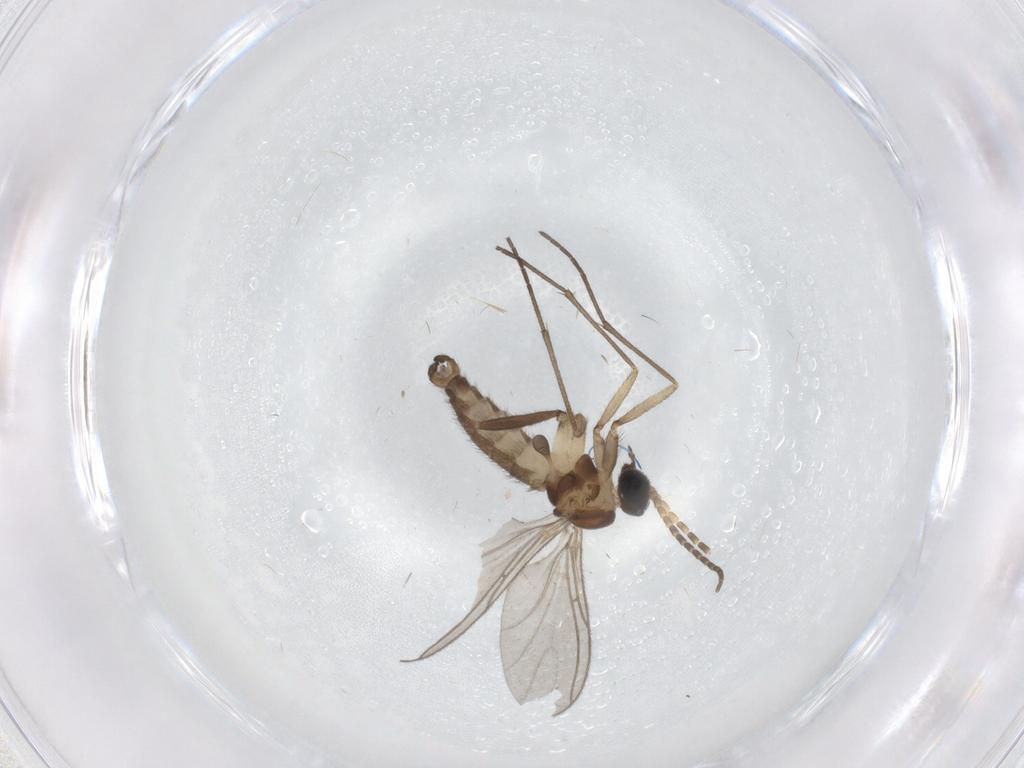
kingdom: Animalia
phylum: Arthropoda
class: Insecta
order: Diptera
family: Sciaridae
